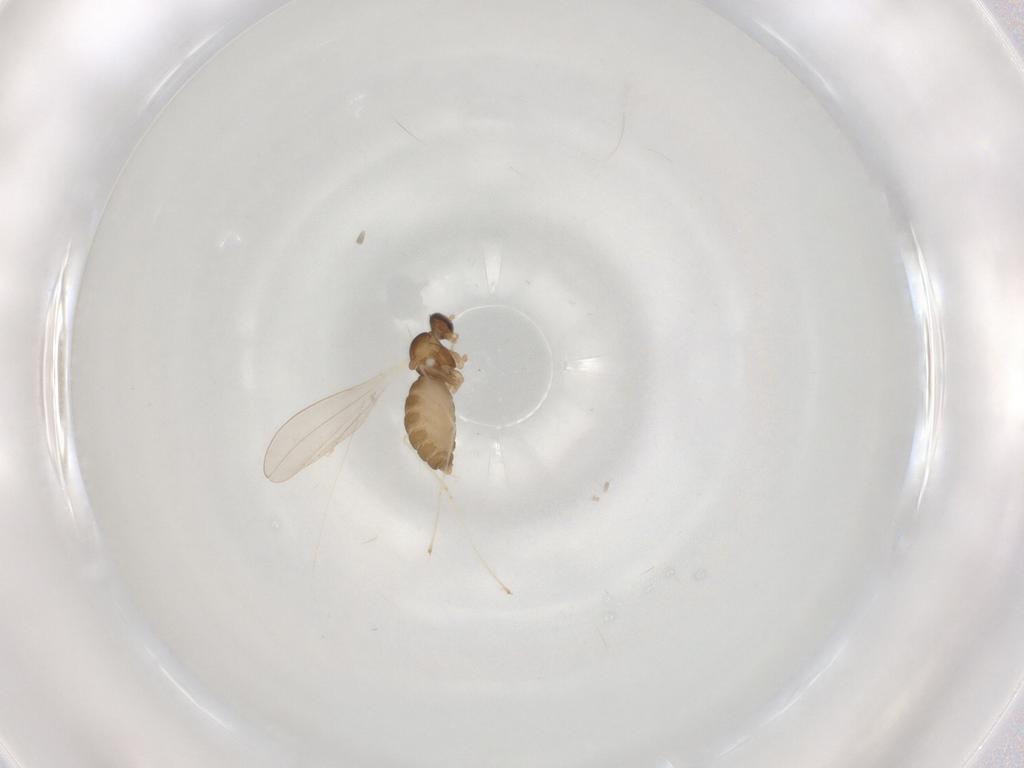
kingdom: Animalia
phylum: Arthropoda
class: Insecta
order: Diptera
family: Cecidomyiidae
